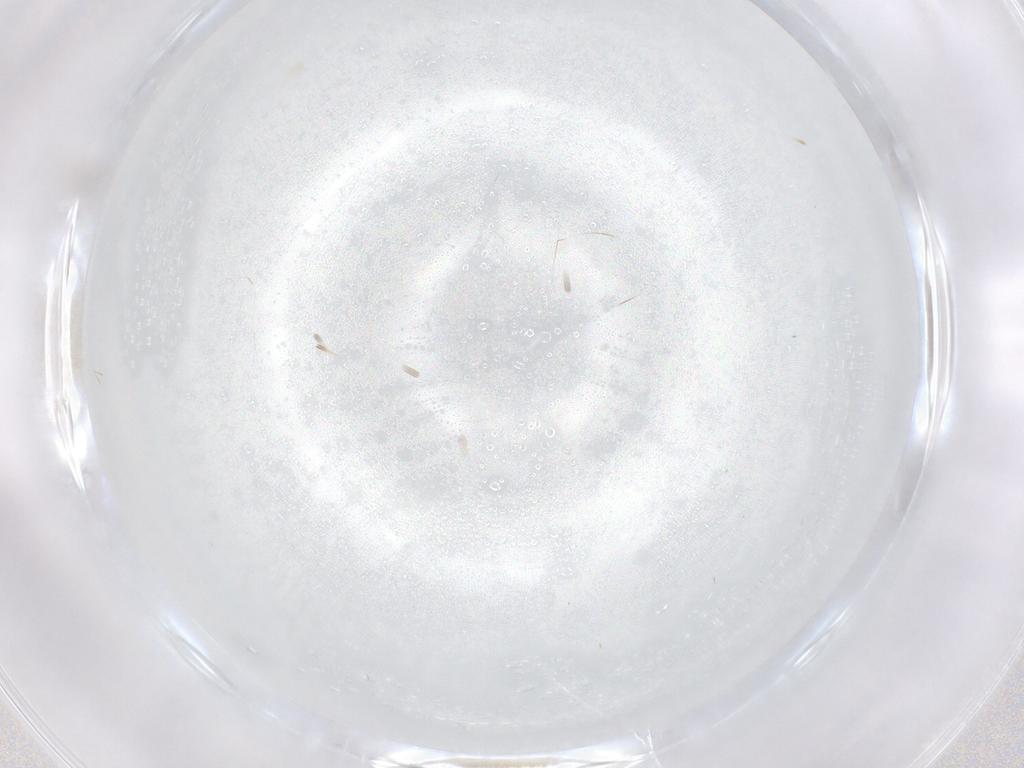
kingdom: Animalia
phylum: Arthropoda
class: Insecta
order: Hymenoptera
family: Mymaridae
